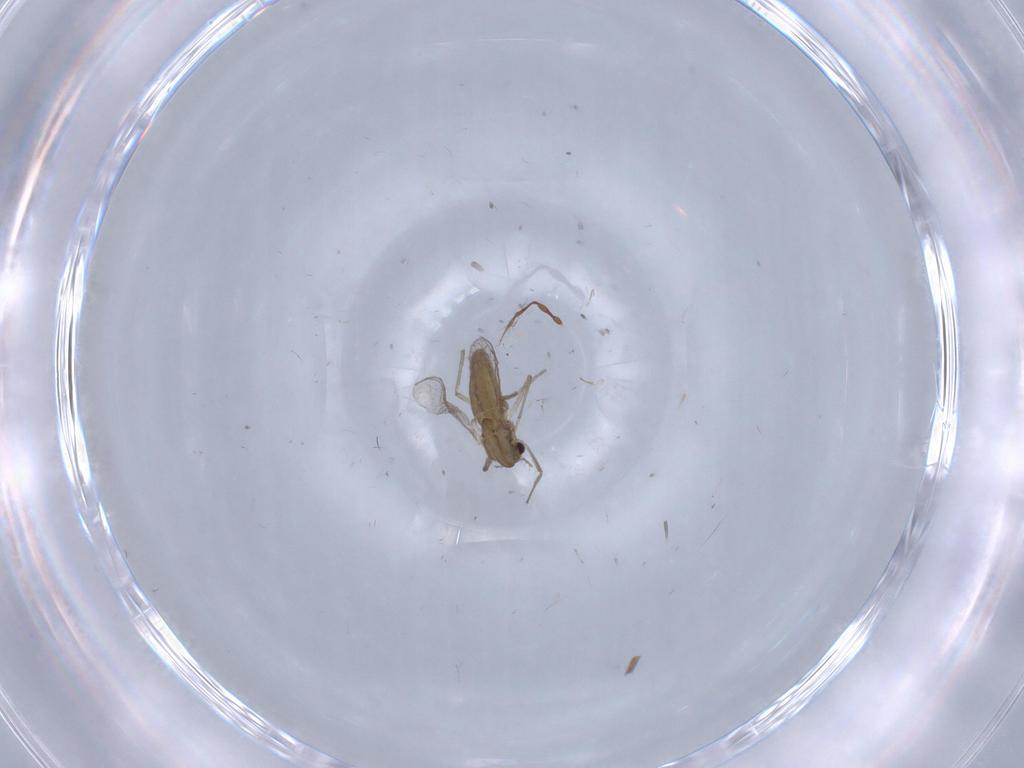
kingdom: Animalia
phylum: Arthropoda
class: Insecta
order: Diptera
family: Chironomidae
